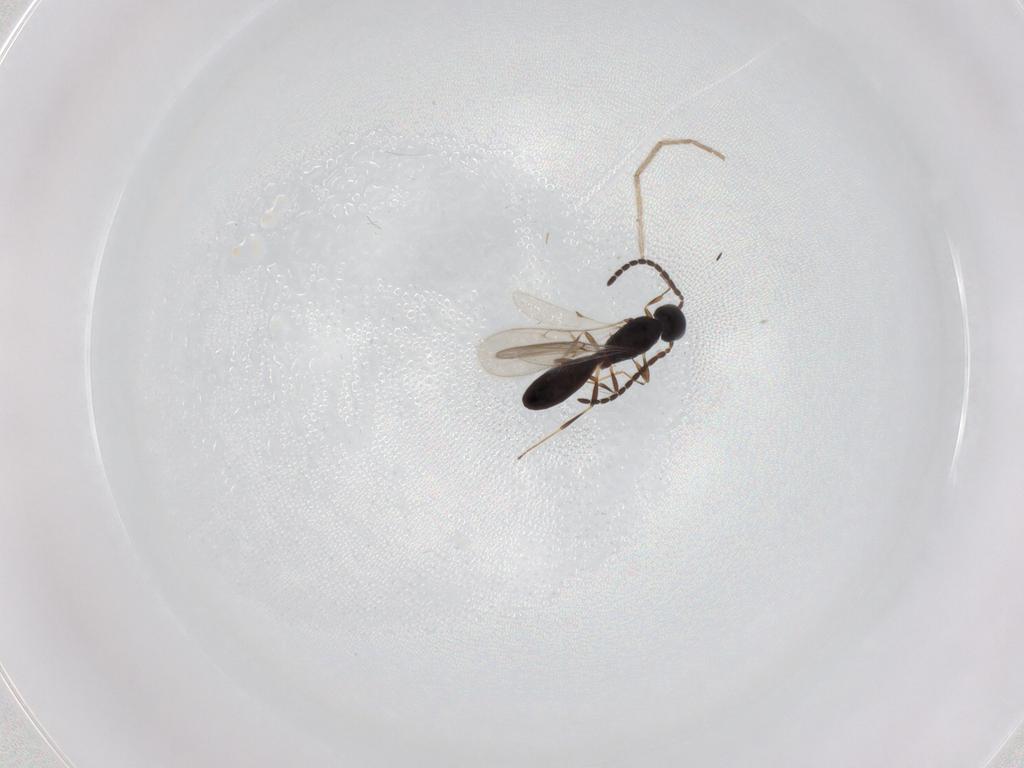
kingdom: Animalia
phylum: Arthropoda
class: Insecta
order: Hymenoptera
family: Scelionidae
